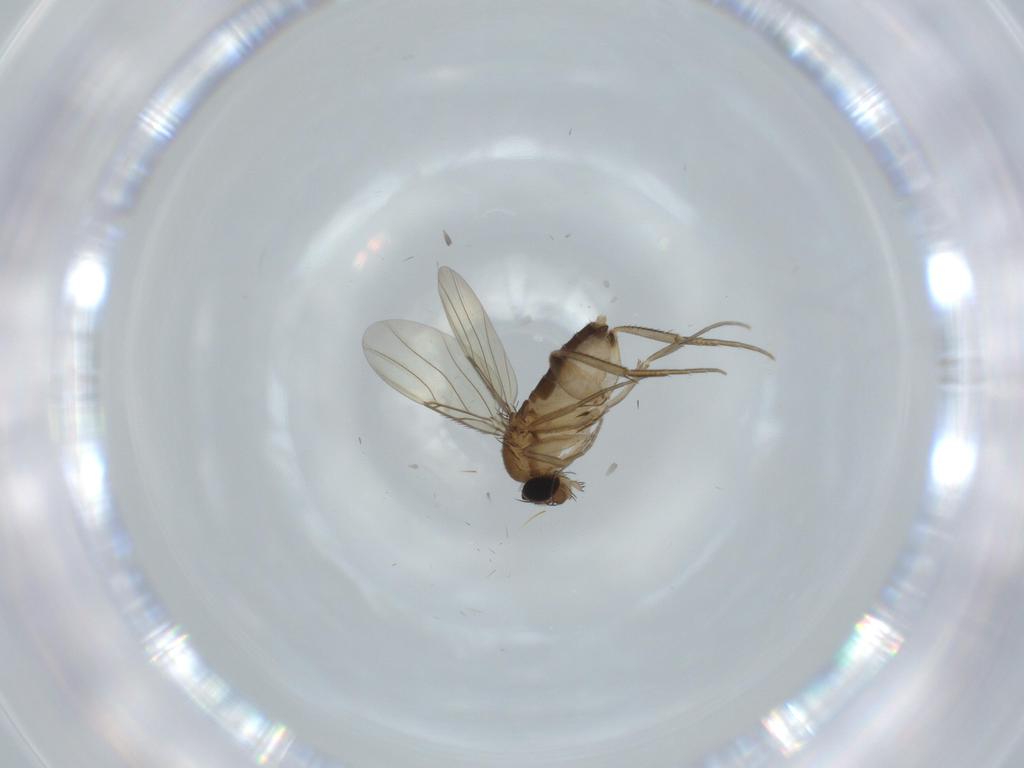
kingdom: Animalia
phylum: Arthropoda
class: Insecta
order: Diptera
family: Phoridae
